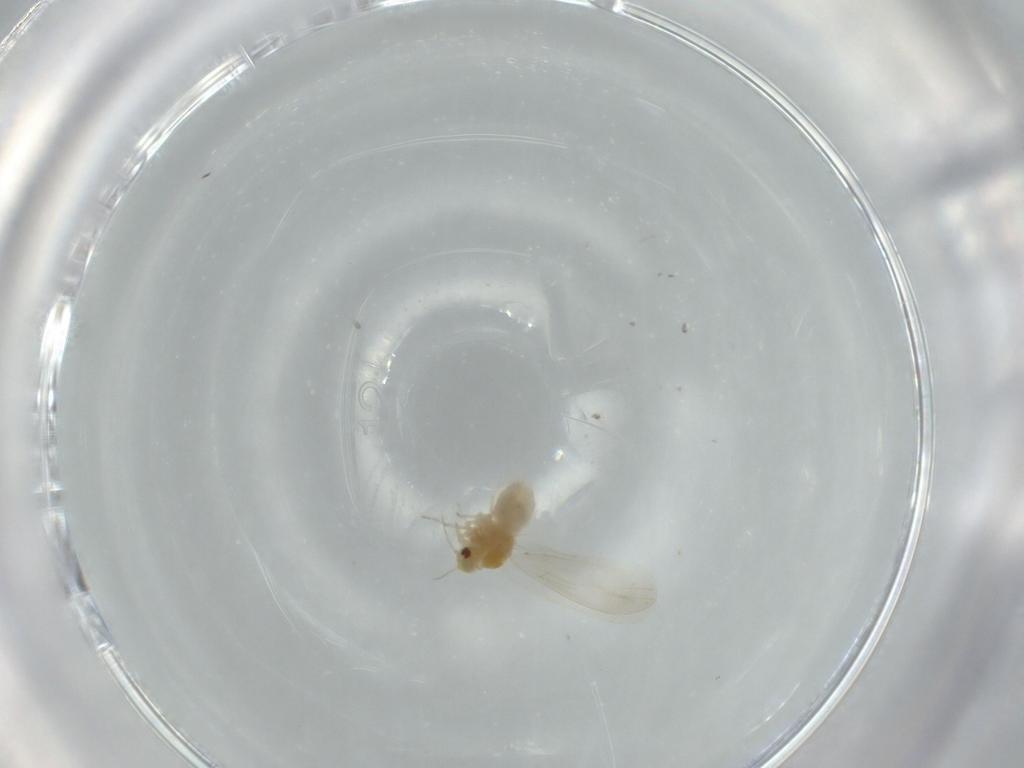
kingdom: Animalia
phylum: Arthropoda
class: Insecta
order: Hemiptera
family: Aleyrodidae
